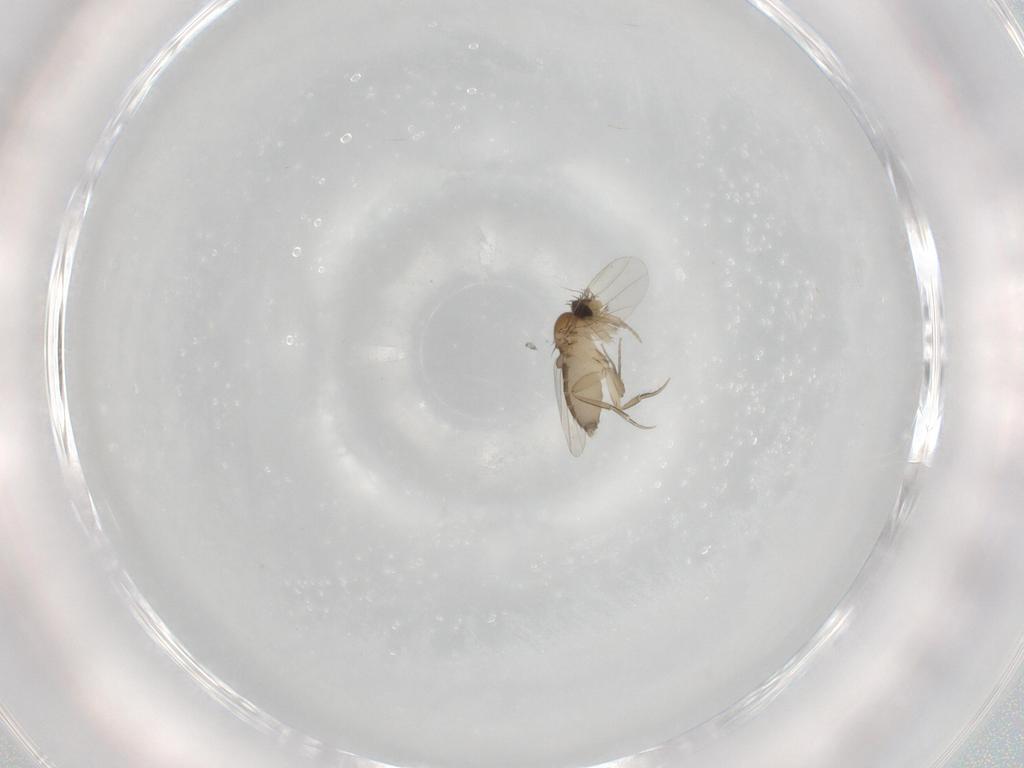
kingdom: Animalia
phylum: Arthropoda
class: Insecta
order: Diptera
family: Phoridae
